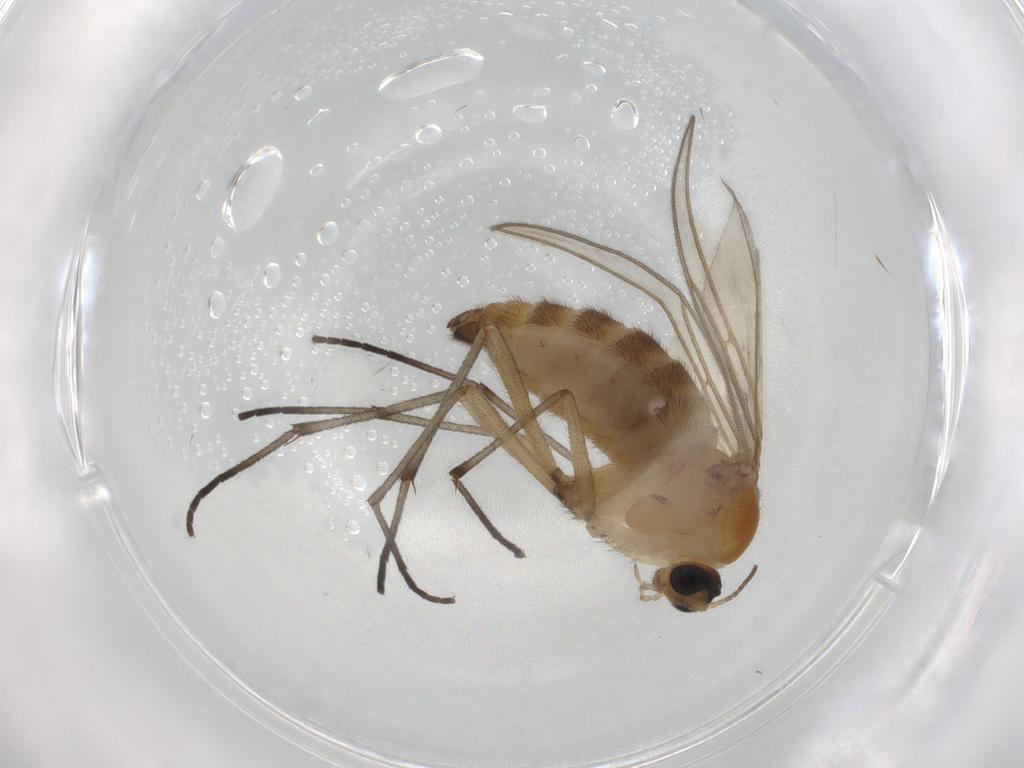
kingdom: Animalia
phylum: Arthropoda
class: Insecta
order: Diptera
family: Sciaridae
